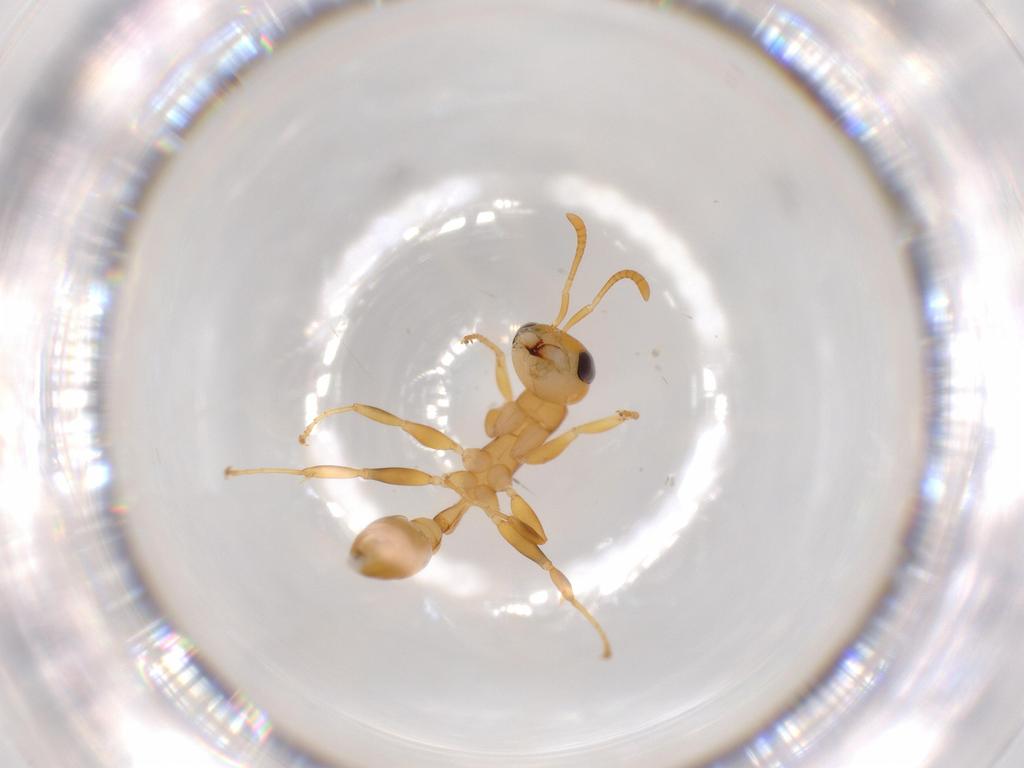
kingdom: Animalia
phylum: Arthropoda
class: Insecta
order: Hymenoptera
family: Formicidae
